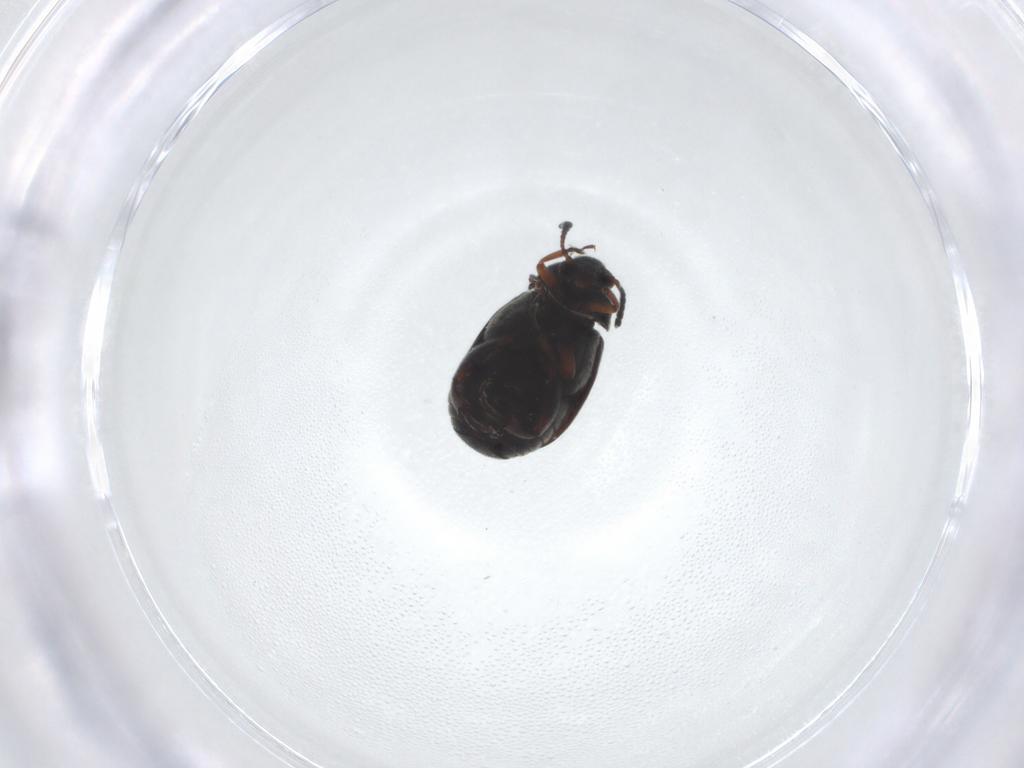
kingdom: Animalia
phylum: Arthropoda
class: Insecta
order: Coleoptera
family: Chrysomelidae
